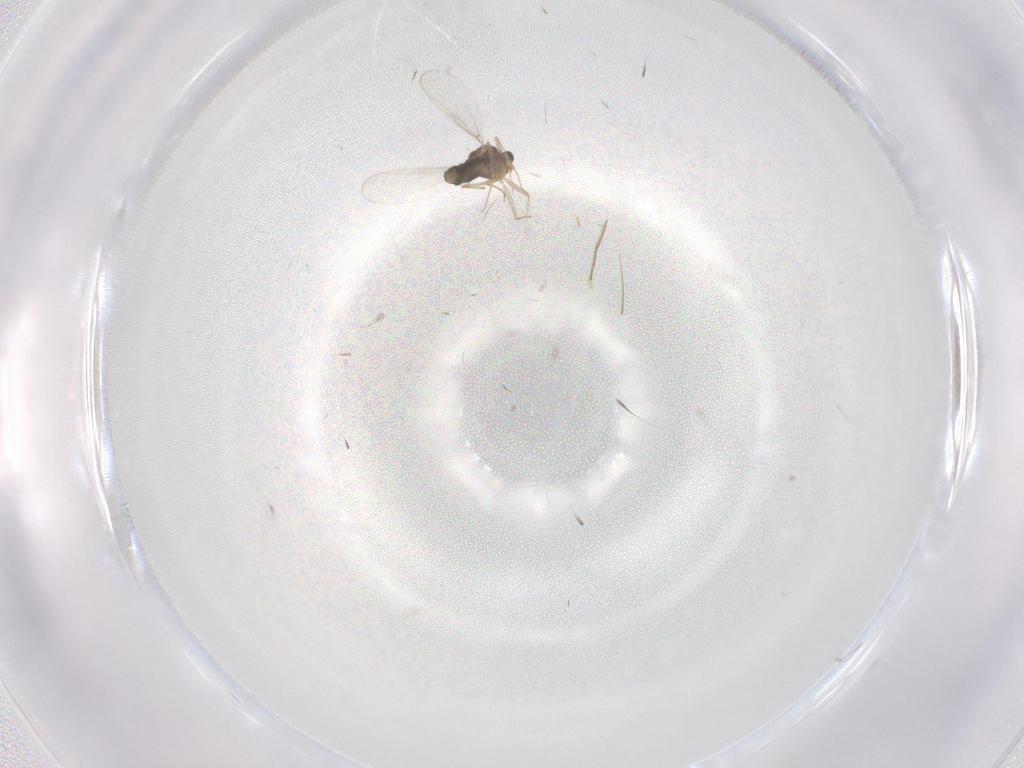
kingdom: Animalia
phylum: Arthropoda
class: Insecta
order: Diptera
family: Chironomidae
